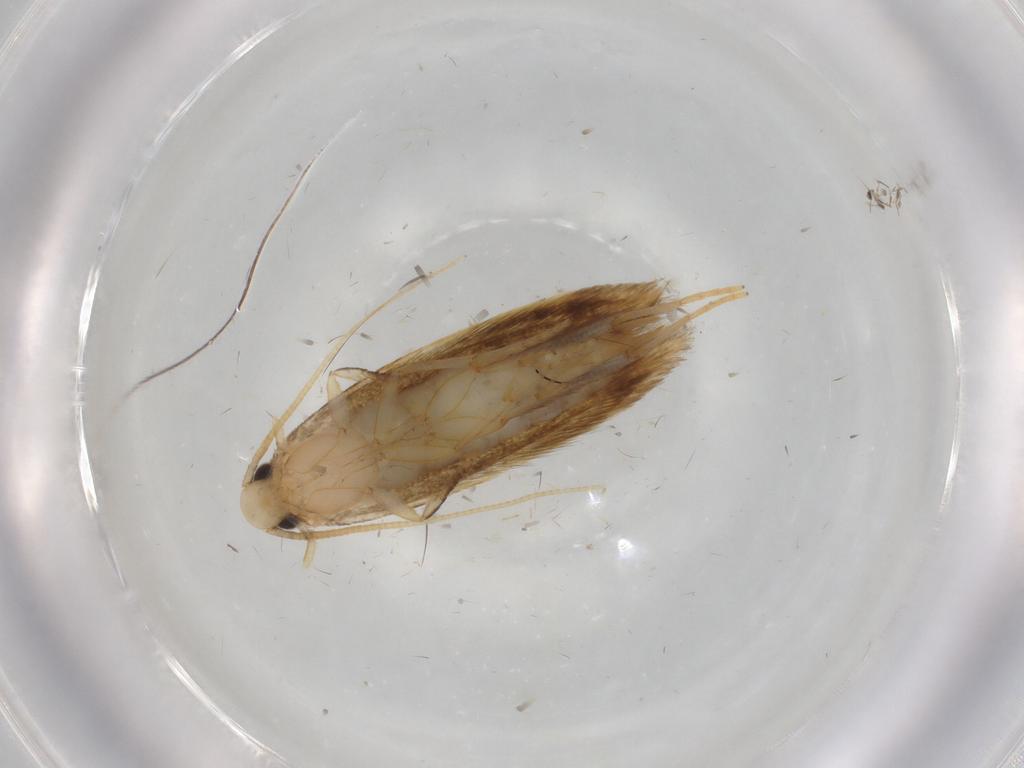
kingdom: Animalia
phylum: Arthropoda
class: Insecta
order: Lepidoptera
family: Tineidae
